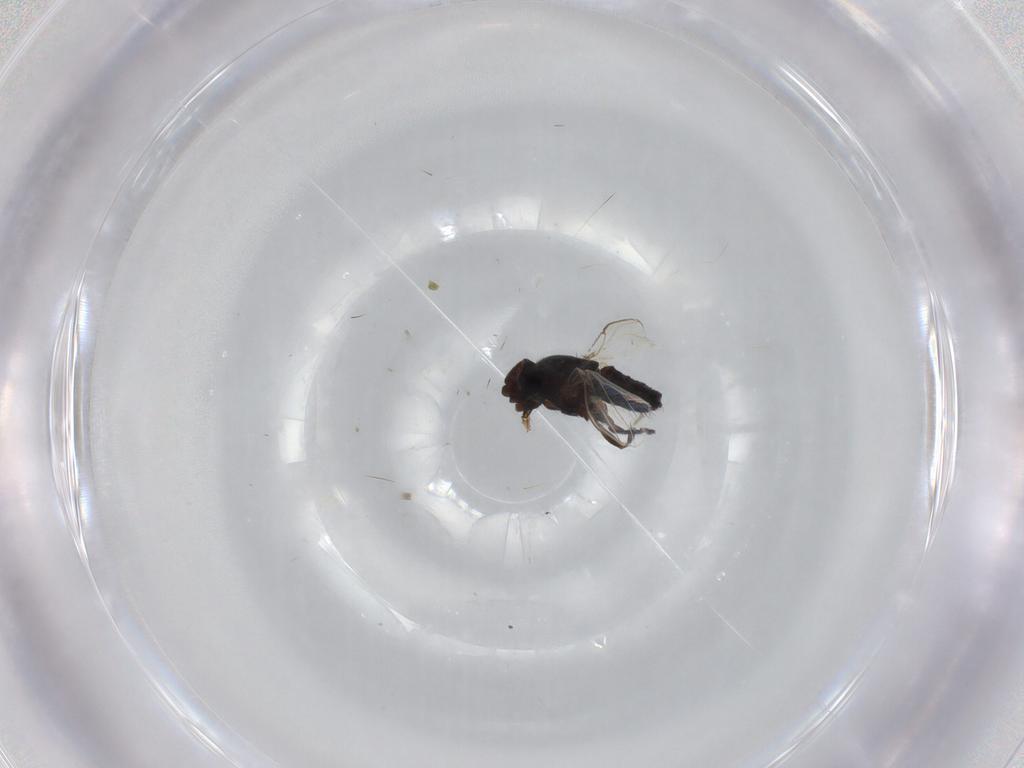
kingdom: Animalia
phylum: Arthropoda
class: Insecta
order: Diptera
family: Milichiidae
